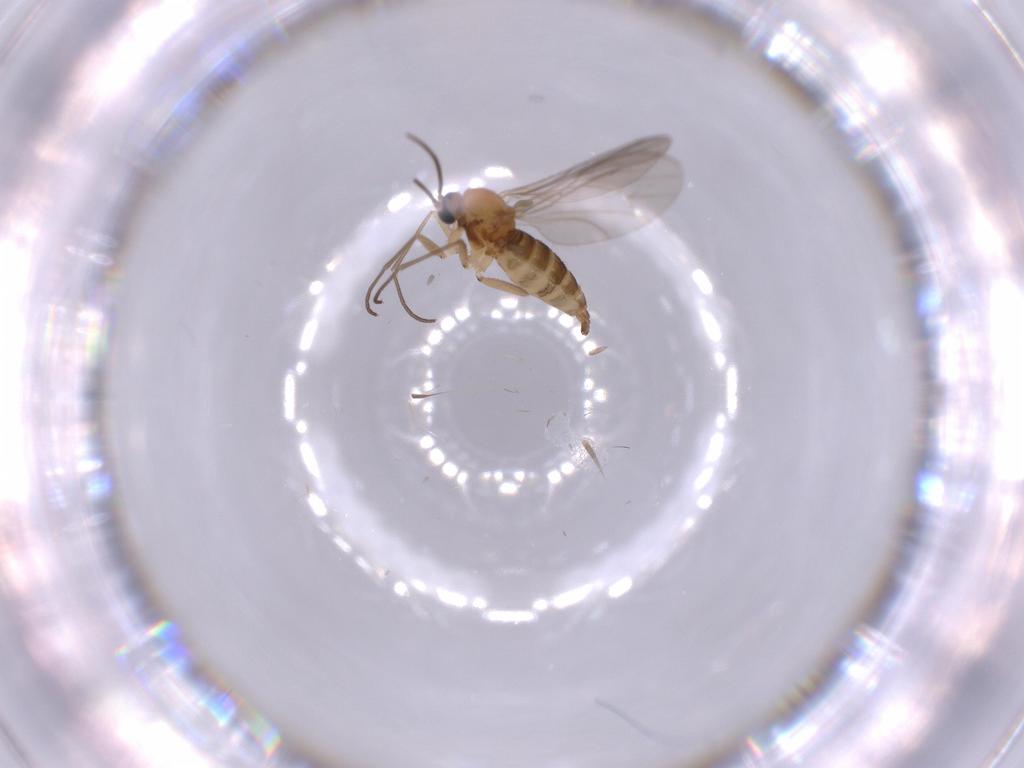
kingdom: Animalia
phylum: Arthropoda
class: Insecta
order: Diptera
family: Sciaridae
